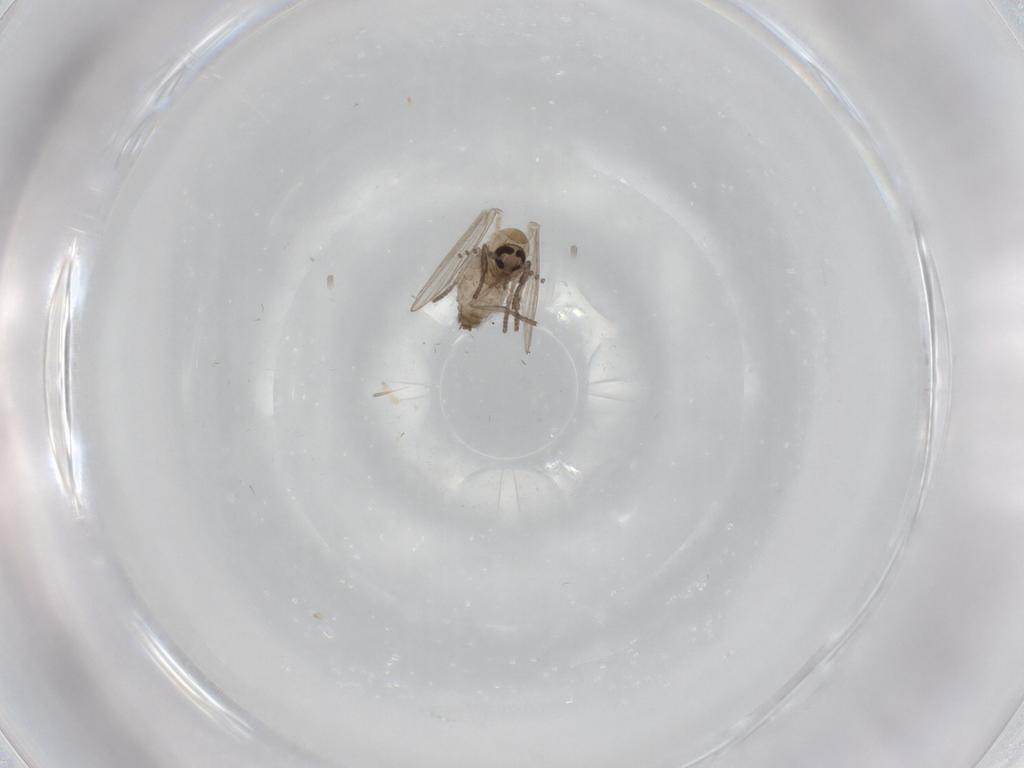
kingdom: Animalia
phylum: Arthropoda
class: Insecta
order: Diptera
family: Psychodidae
